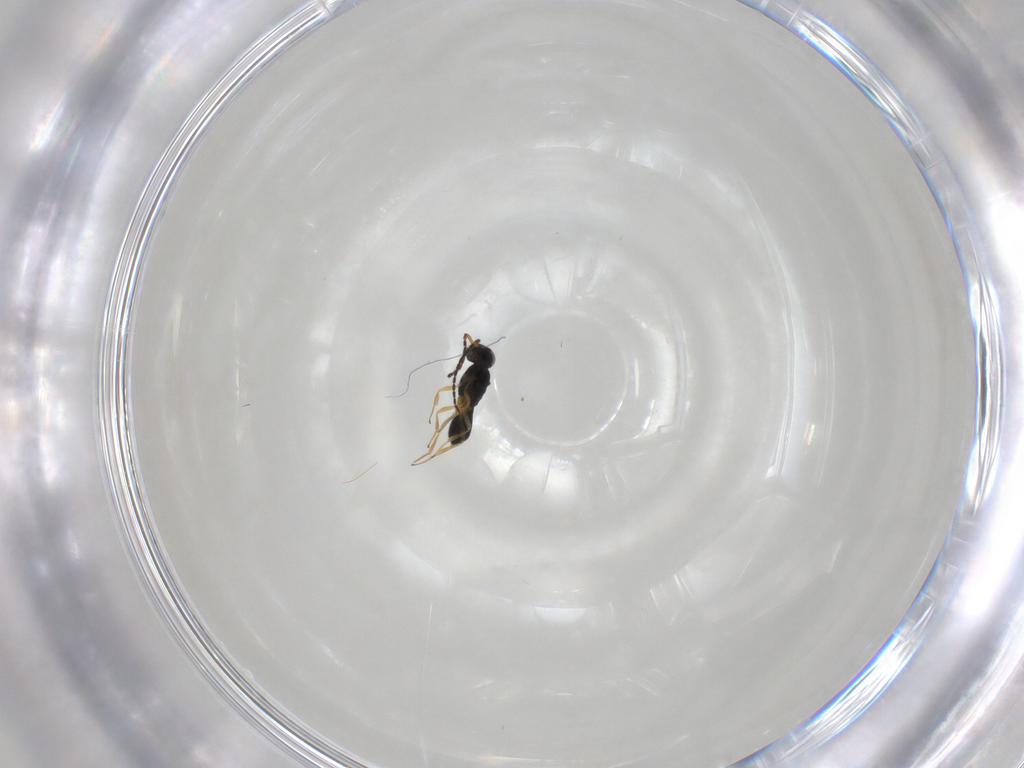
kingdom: Animalia
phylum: Arthropoda
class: Insecta
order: Hymenoptera
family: Scelionidae
